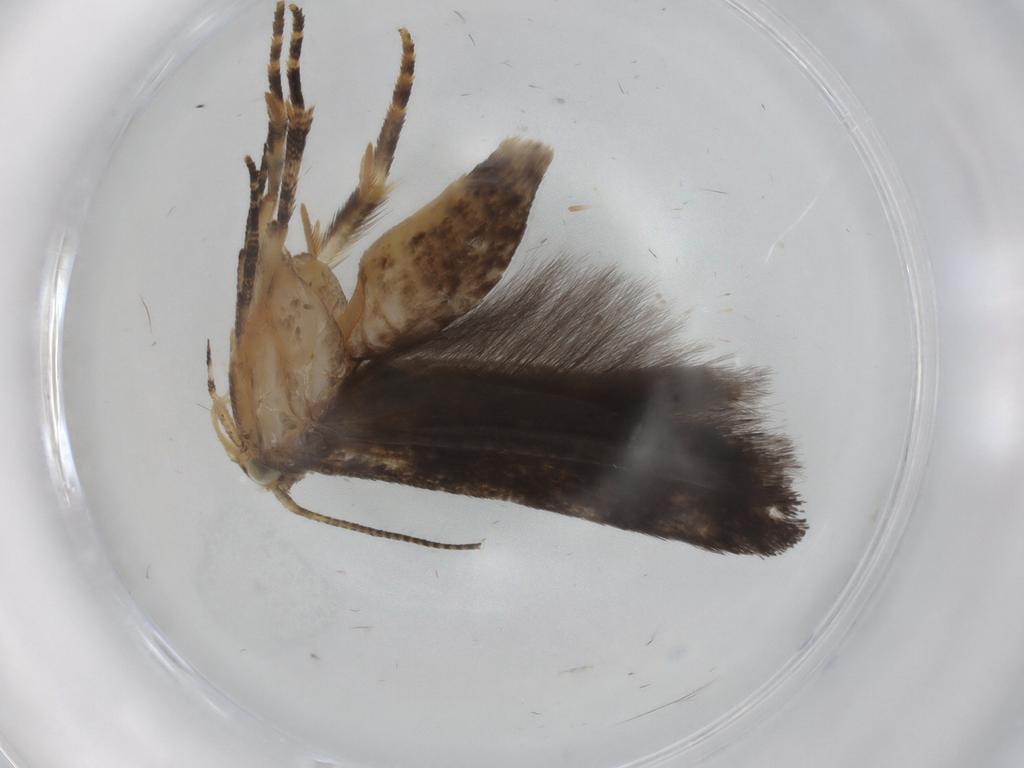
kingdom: Animalia
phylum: Arthropoda
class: Insecta
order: Lepidoptera
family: Gelechiidae
